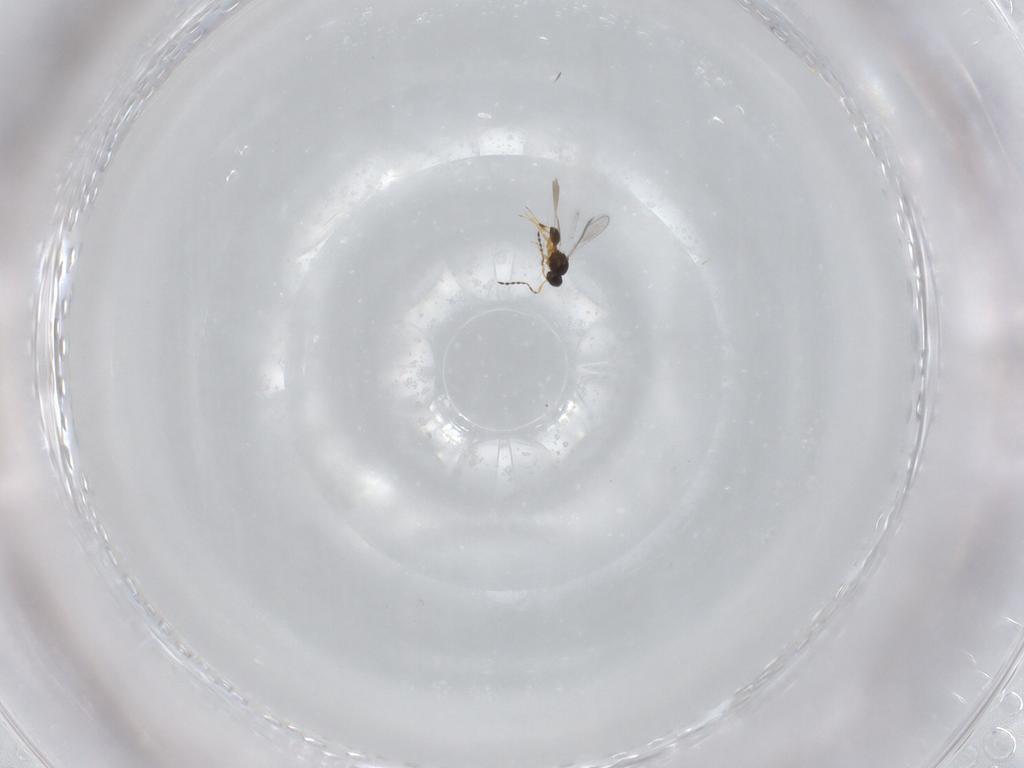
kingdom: Animalia
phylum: Arthropoda
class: Insecta
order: Hymenoptera
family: Platygastridae
